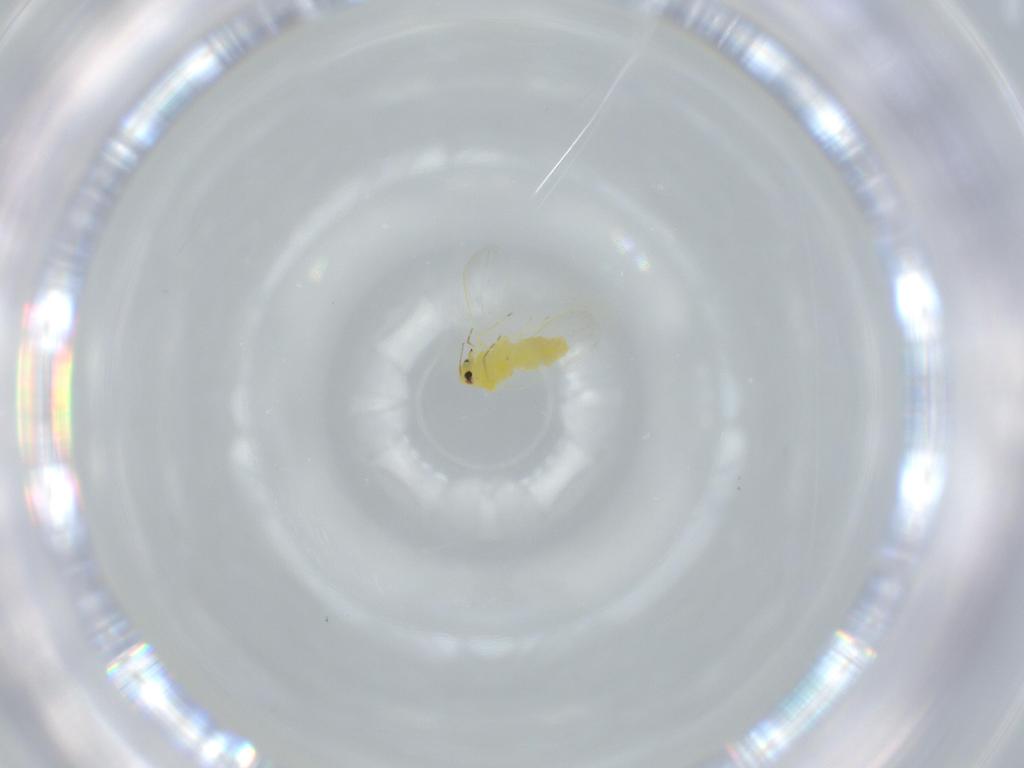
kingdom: Animalia
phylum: Arthropoda
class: Insecta
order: Hemiptera
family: Aleyrodidae
